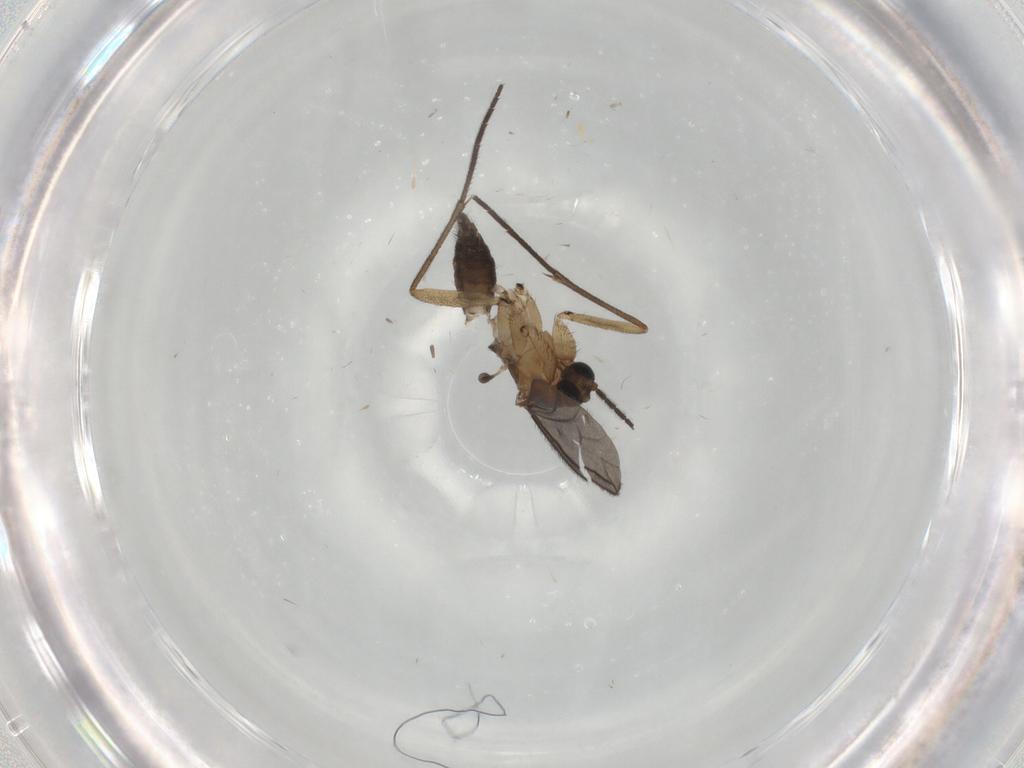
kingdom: Animalia
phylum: Arthropoda
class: Insecta
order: Diptera
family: Sciaridae
